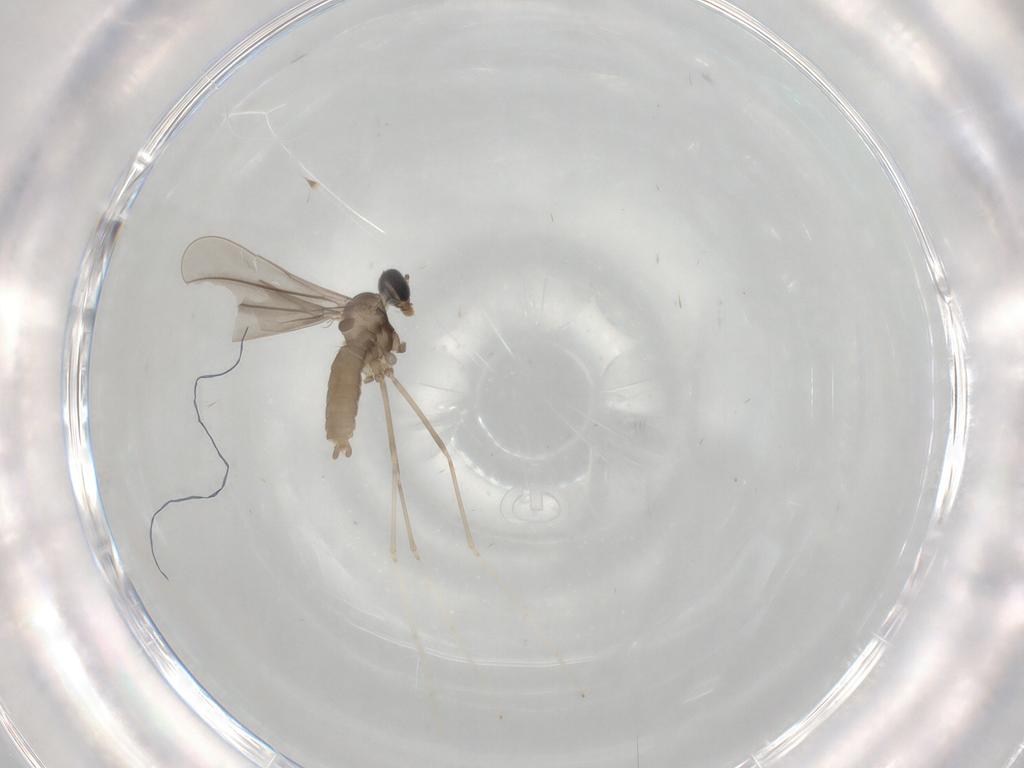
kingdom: Animalia
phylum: Arthropoda
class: Insecta
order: Diptera
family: Cecidomyiidae
